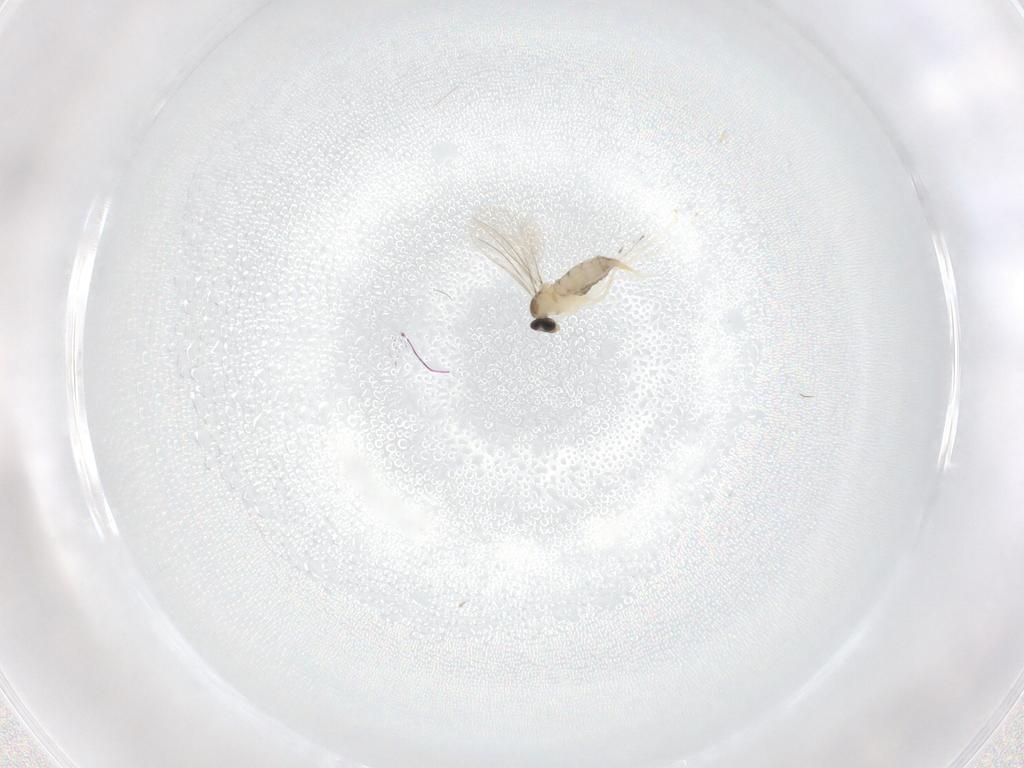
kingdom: Animalia
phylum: Arthropoda
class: Insecta
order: Diptera
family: Cecidomyiidae
